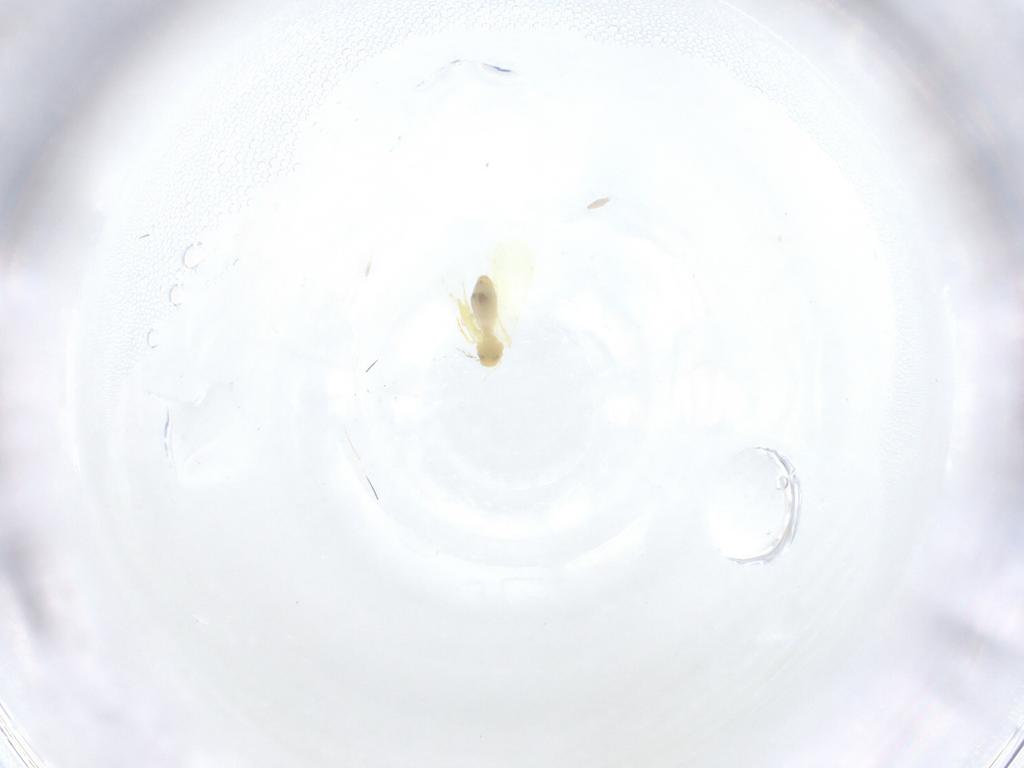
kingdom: Animalia
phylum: Arthropoda
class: Insecta
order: Hemiptera
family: Aleyrodidae
